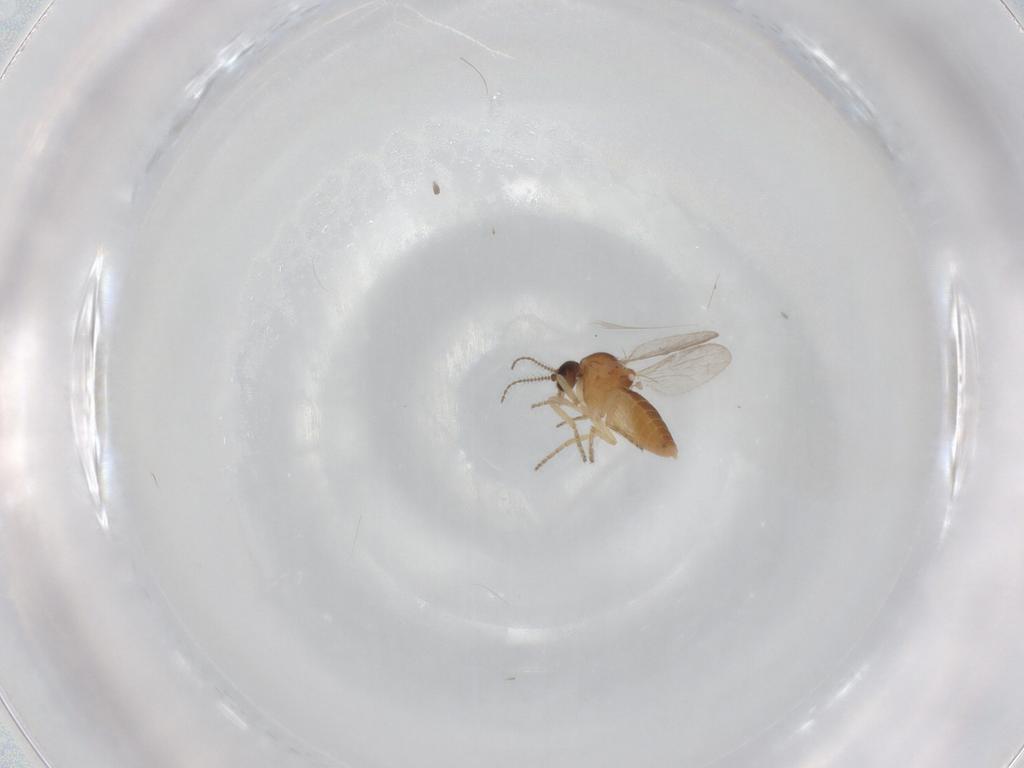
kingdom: Animalia
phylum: Arthropoda
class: Insecta
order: Diptera
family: Ceratopogonidae
